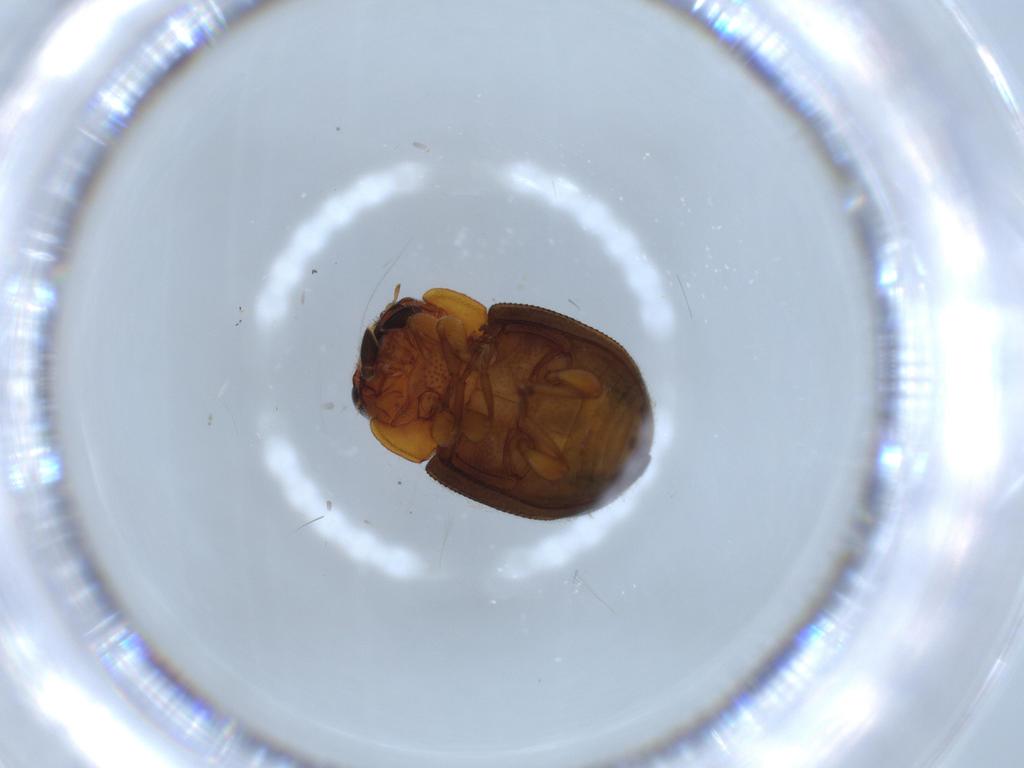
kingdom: Animalia
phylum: Arthropoda
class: Insecta
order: Coleoptera
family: Coccinellidae
